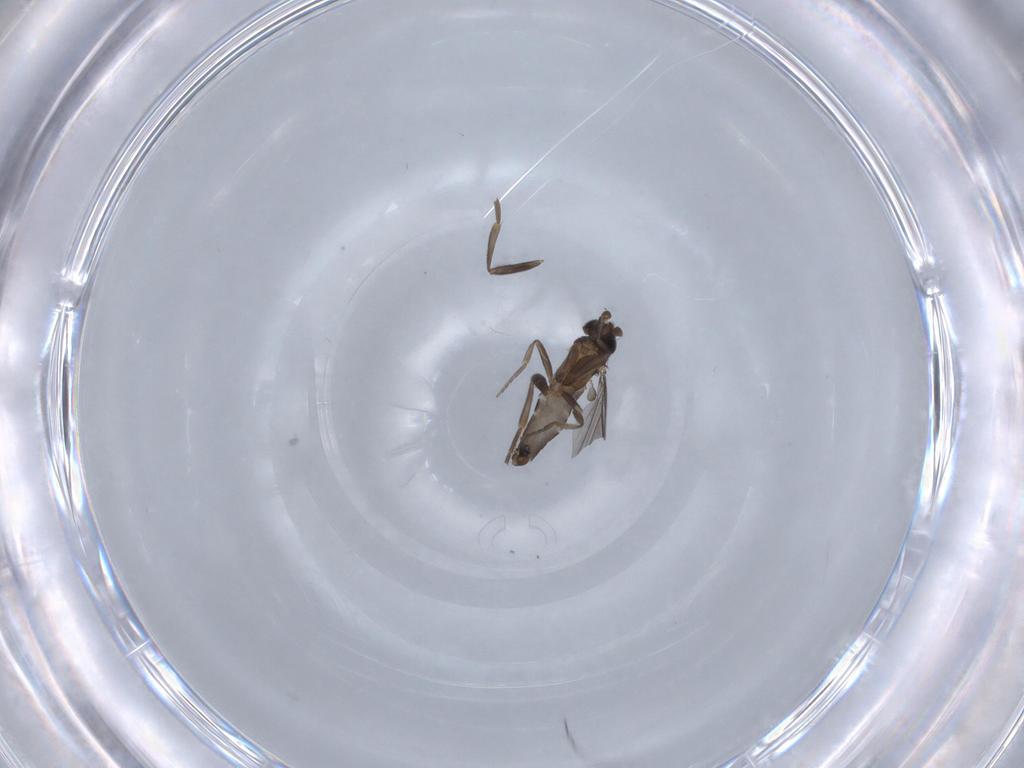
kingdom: Animalia
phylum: Arthropoda
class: Insecta
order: Diptera
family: Phoridae
